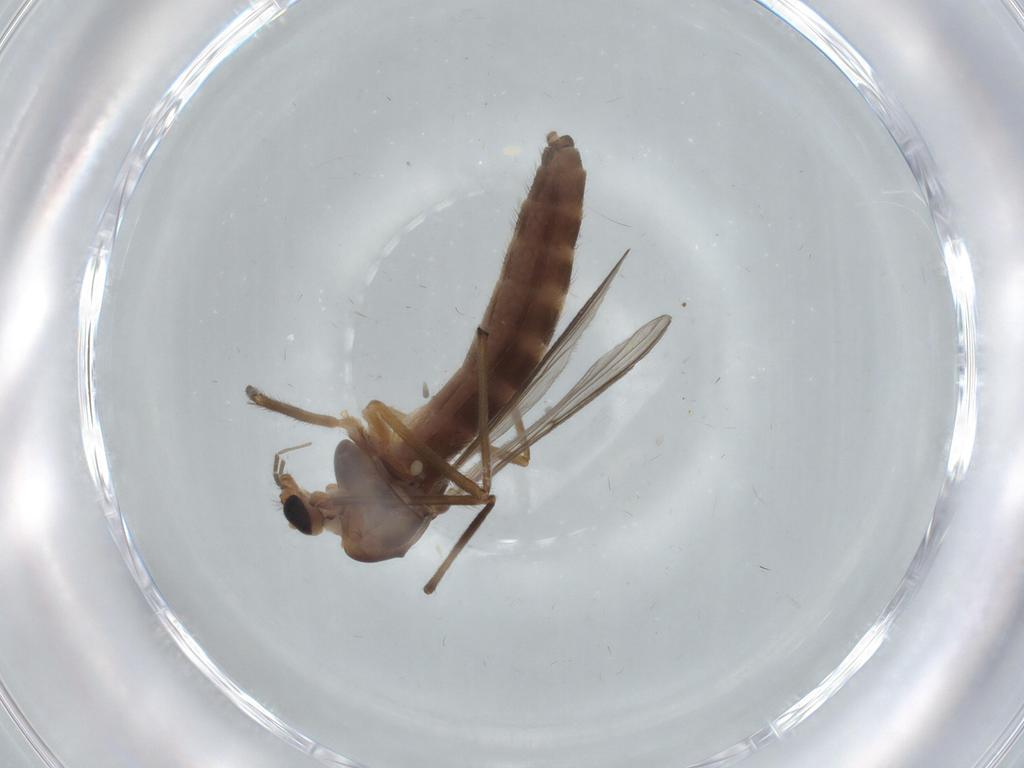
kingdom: Animalia
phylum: Arthropoda
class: Insecta
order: Diptera
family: Chironomidae
